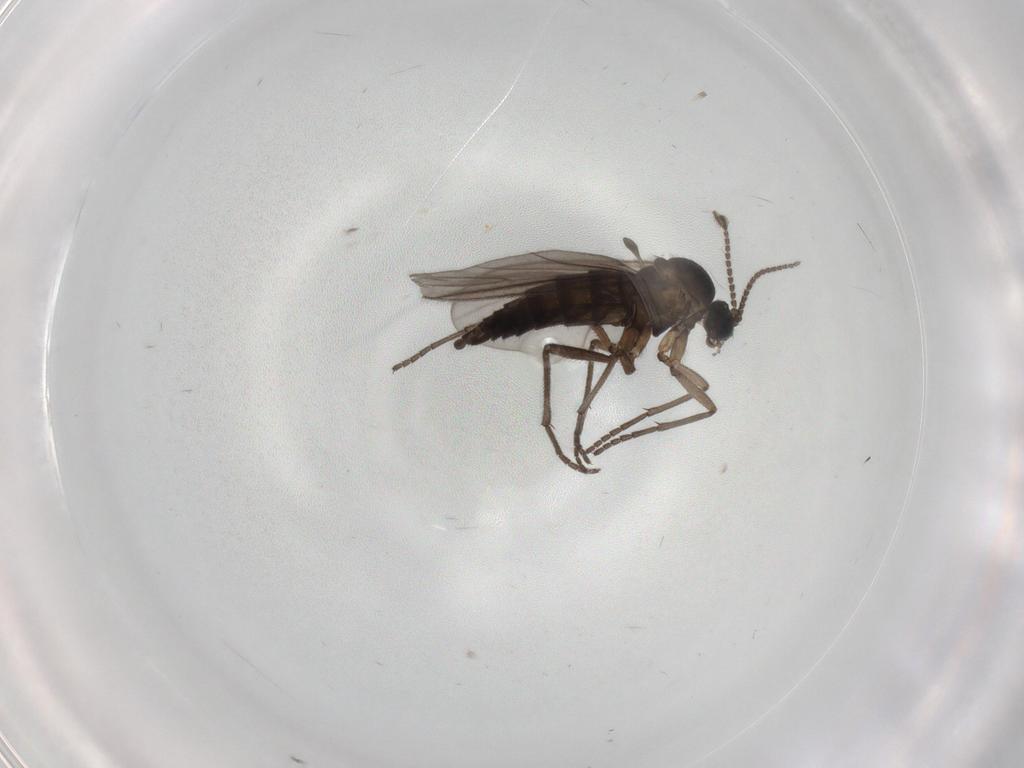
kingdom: Animalia
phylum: Arthropoda
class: Insecta
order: Diptera
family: Sciaridae
